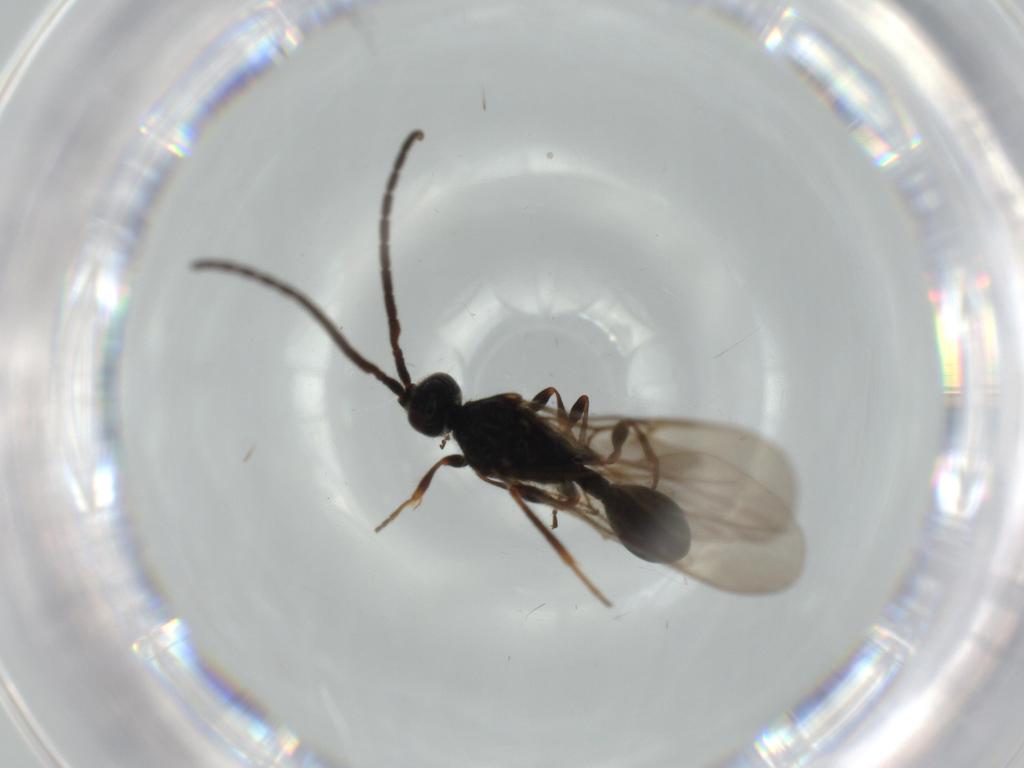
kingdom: Animalia
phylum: Arthropoda
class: Insecta
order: Hymenoptera
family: Diapriidae
